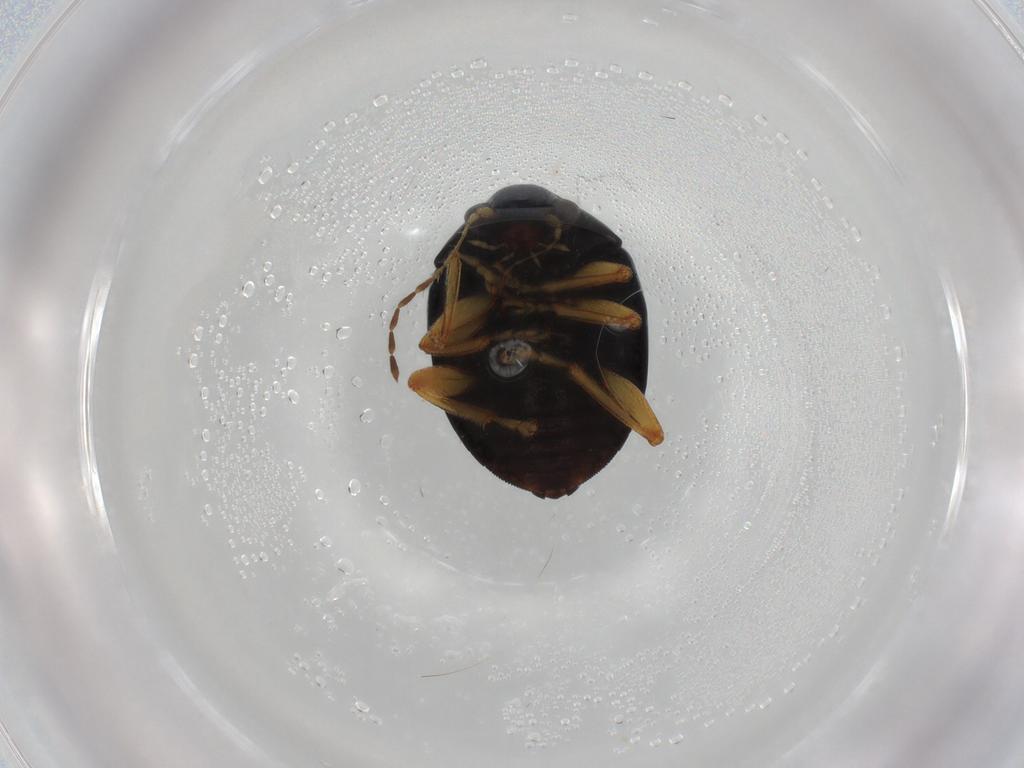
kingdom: Animalia
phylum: Arthropoda
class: Insecta
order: Coleoptera
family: Chrysomelidae
